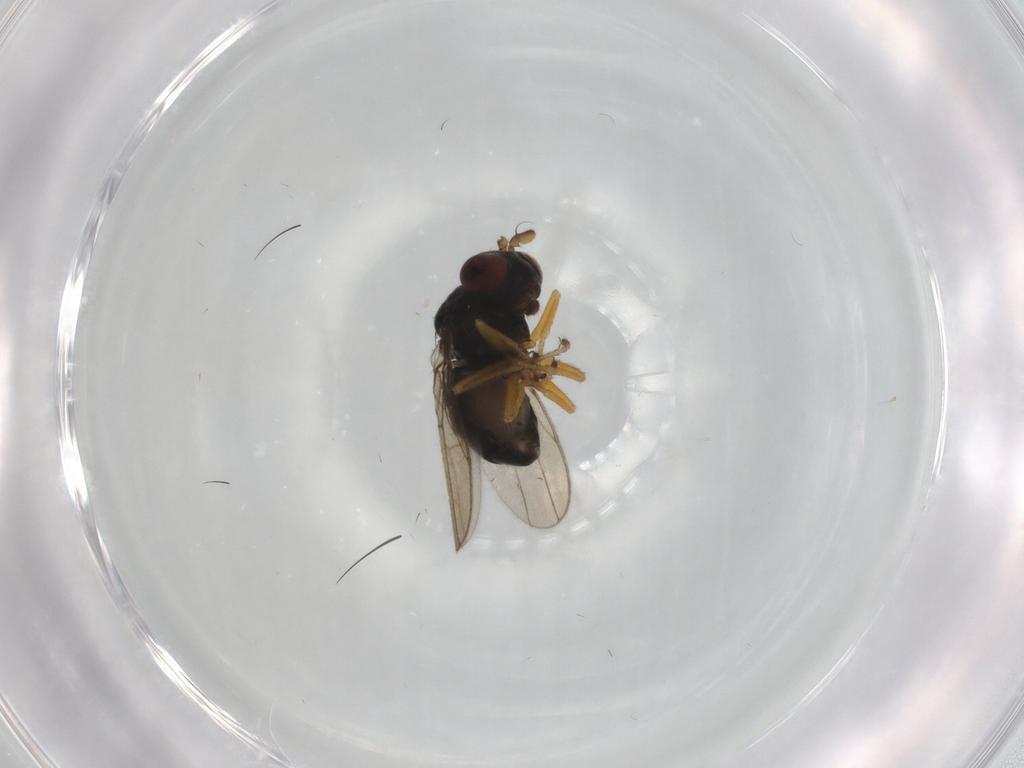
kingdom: Animalia
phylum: Arthropoda
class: Insecta
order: Diptera
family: Ephydridae
